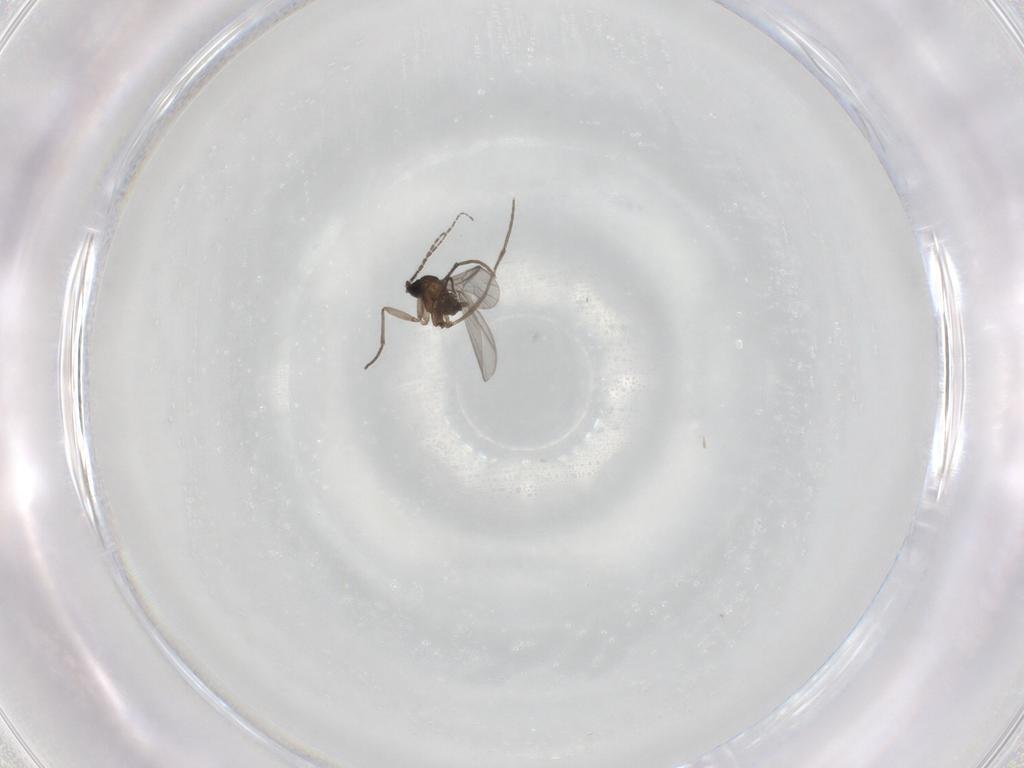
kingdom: Animalia
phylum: Arthropoda
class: Insecta
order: Diptera
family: Sciaridae
